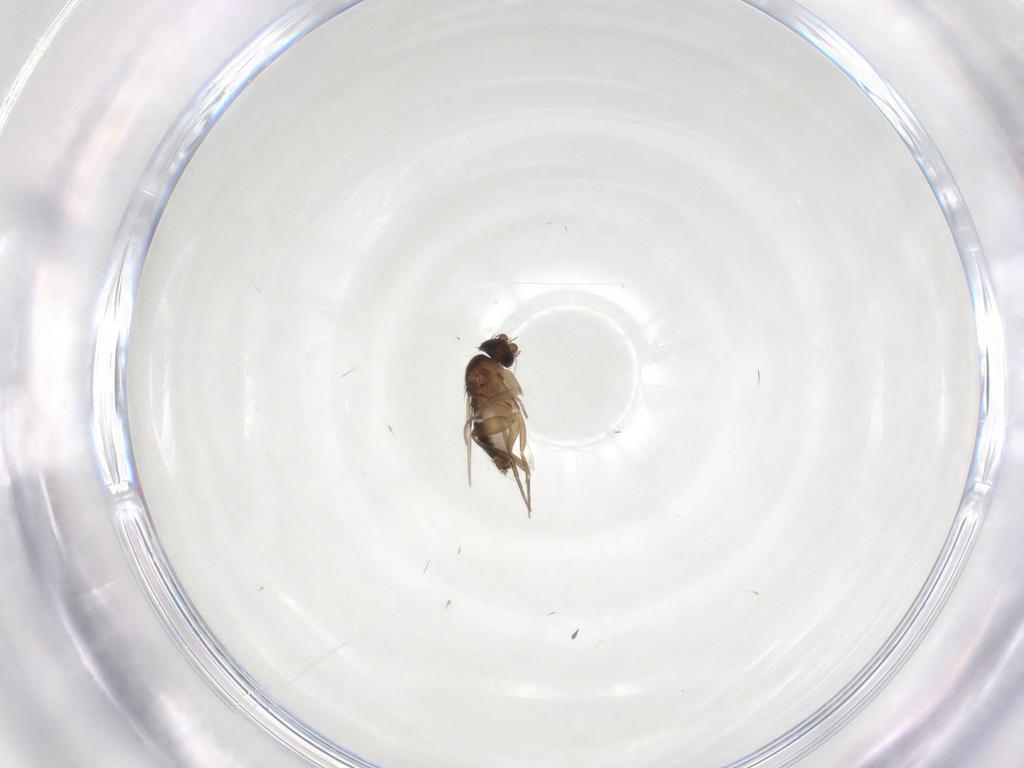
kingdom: Animalia
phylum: Arthropoda
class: Insecta
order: Diptera
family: Phoridae
